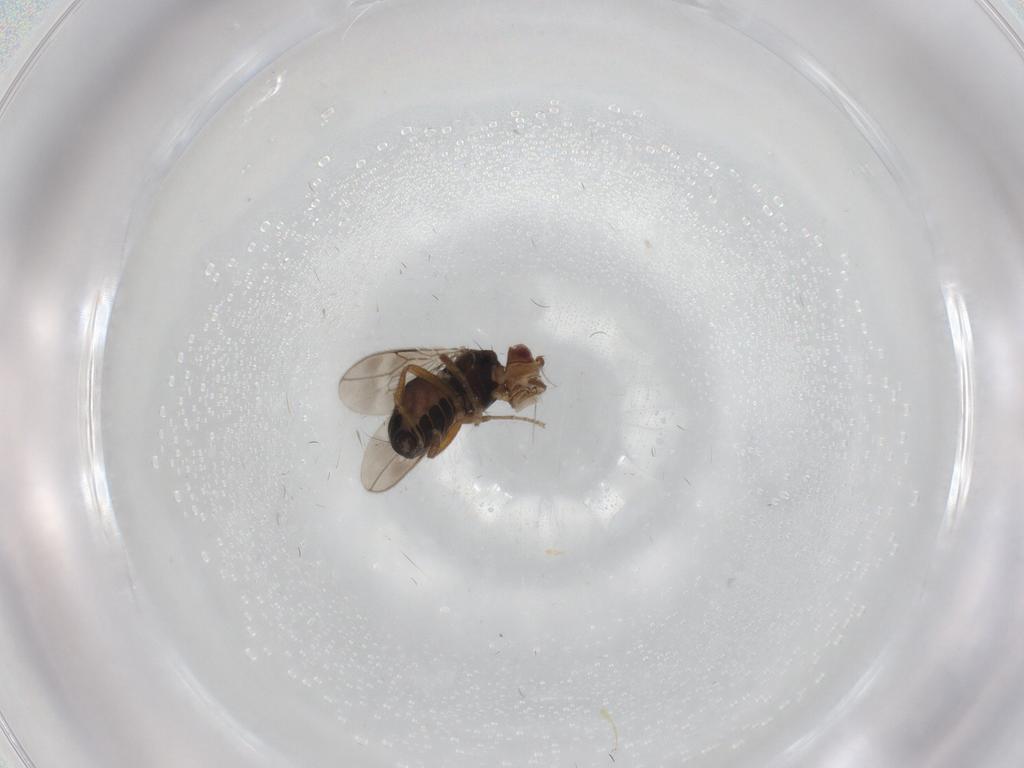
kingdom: Animalia
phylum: Arthropoda
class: Insecta
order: Diptera
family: Sphaeroceridae
